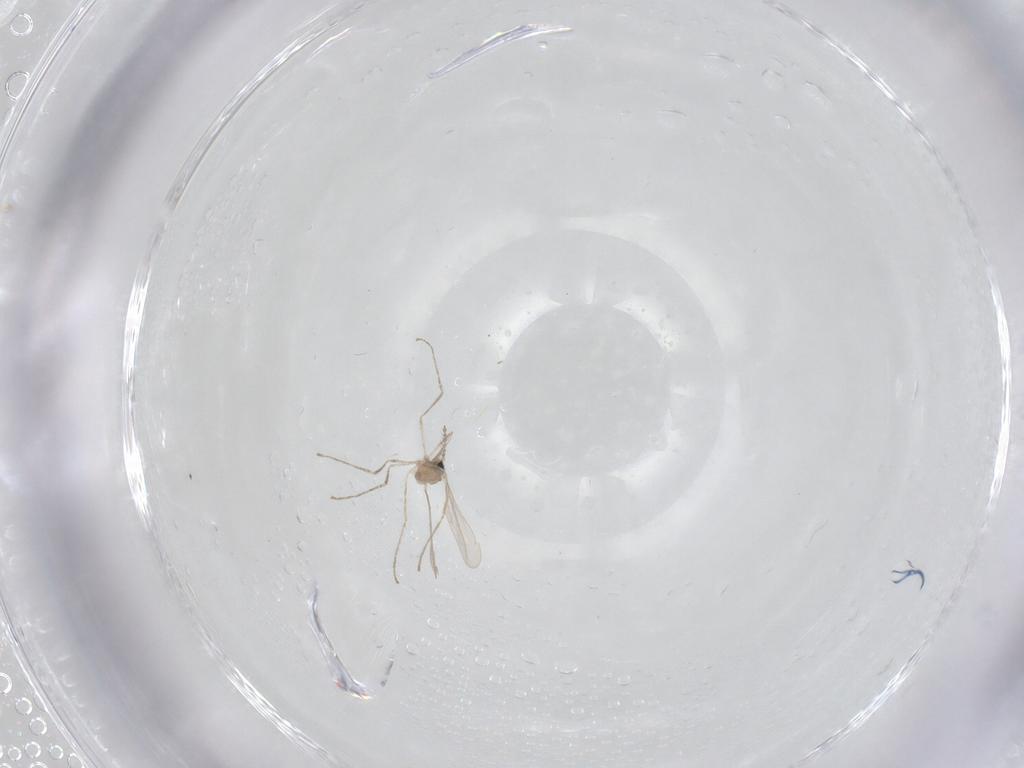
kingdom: Animalia
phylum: Arthropoda
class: Insecta
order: Diptera
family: Cecidomyiidae
